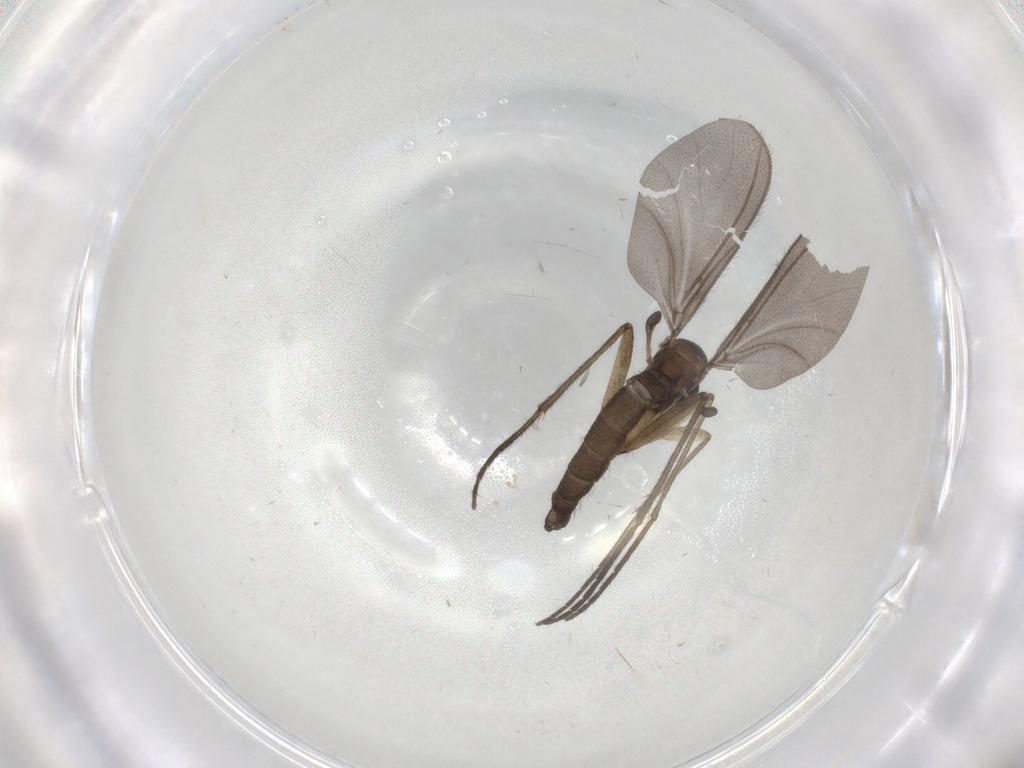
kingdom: Animalia
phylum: Arthropoda
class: Insecta
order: Diptera
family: Sciaridae
